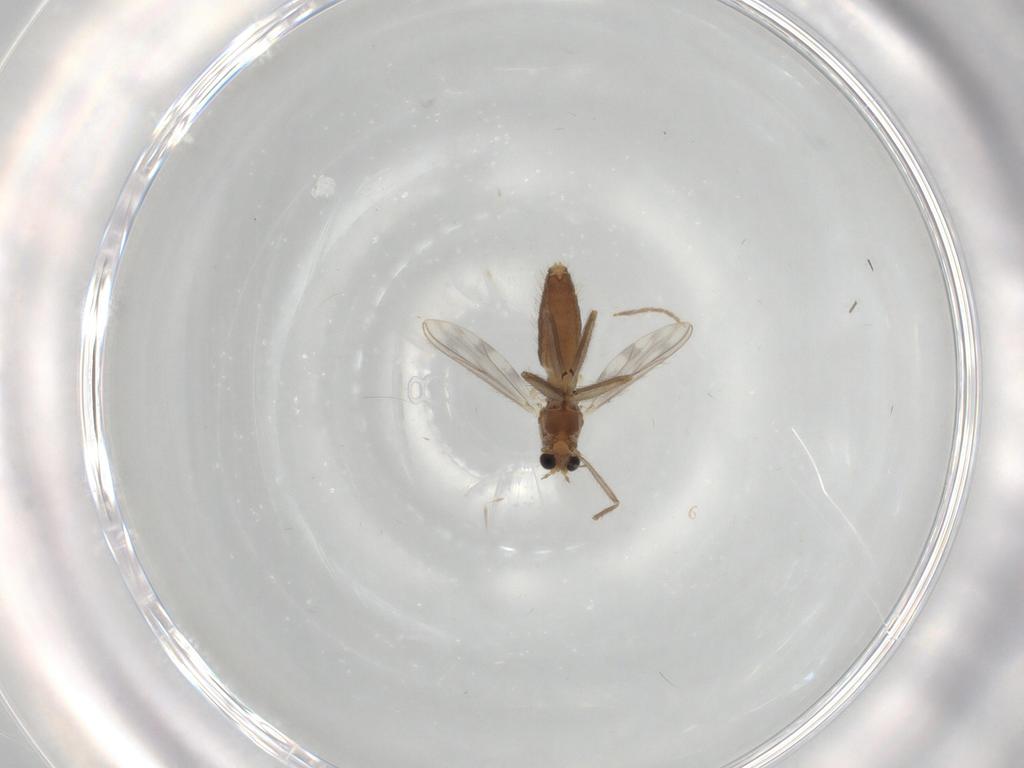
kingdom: Animalia
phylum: Arthropoda
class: Insecta
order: Diptera
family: Chironomidae
